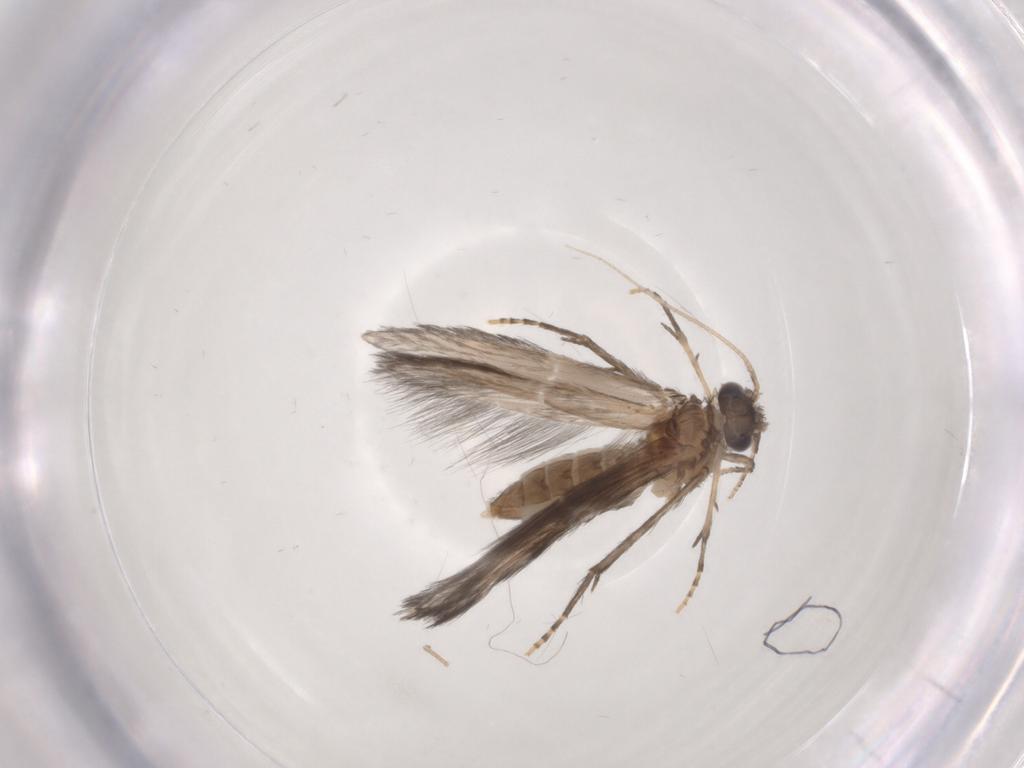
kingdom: Animalia
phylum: Arthropoda
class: Insecta
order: Trichoptera
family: Hydroptilidae
